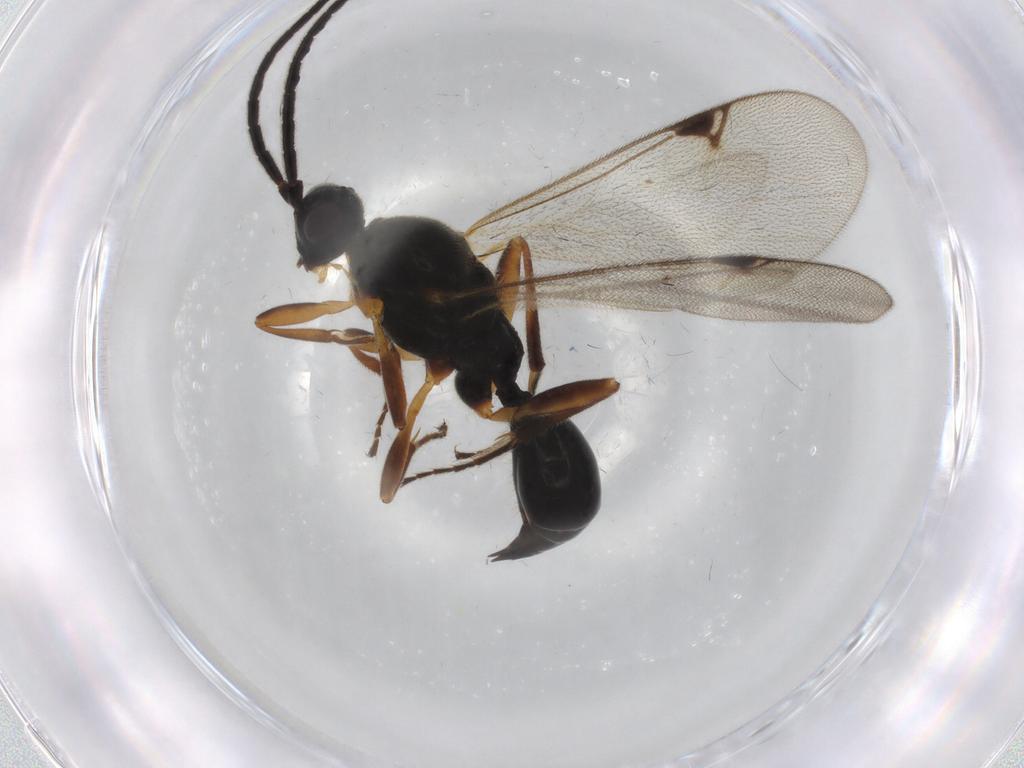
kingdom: Animalia
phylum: Arthropoda
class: Insecta
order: Hymenoptera
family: Diapriidae
